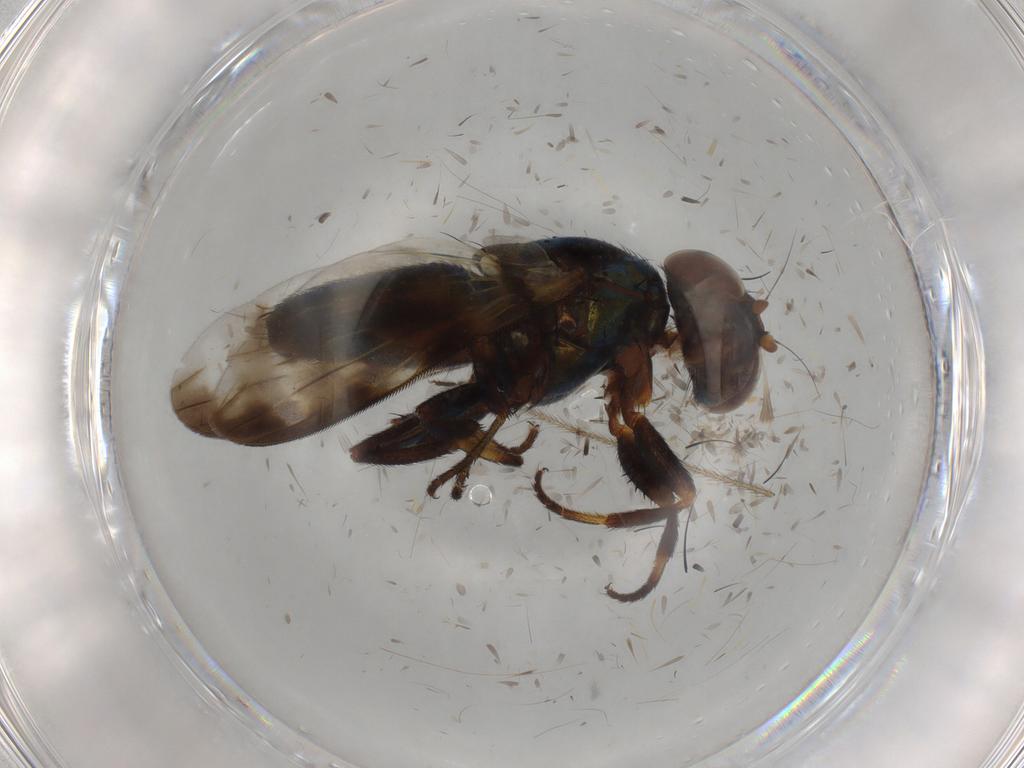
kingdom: Animalia
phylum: Arthropoda
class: Insecta
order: Diptera
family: Ulidiidae
